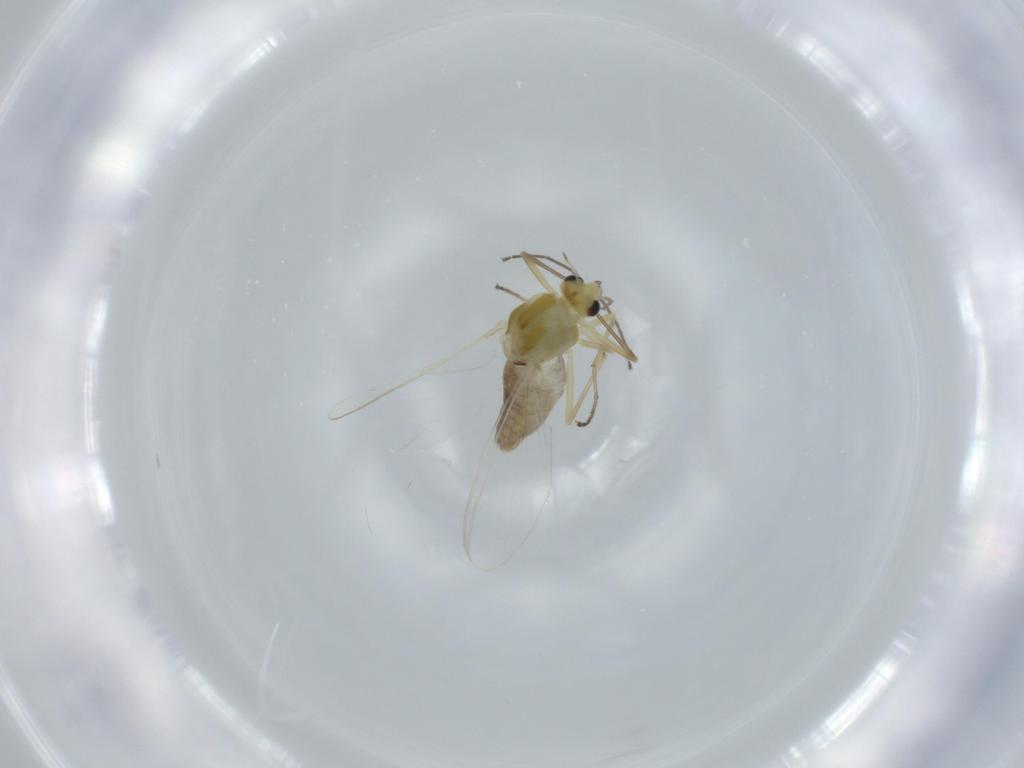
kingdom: Animalia
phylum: Arthropoda
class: Insecta
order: Diptera
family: Chironomidae
